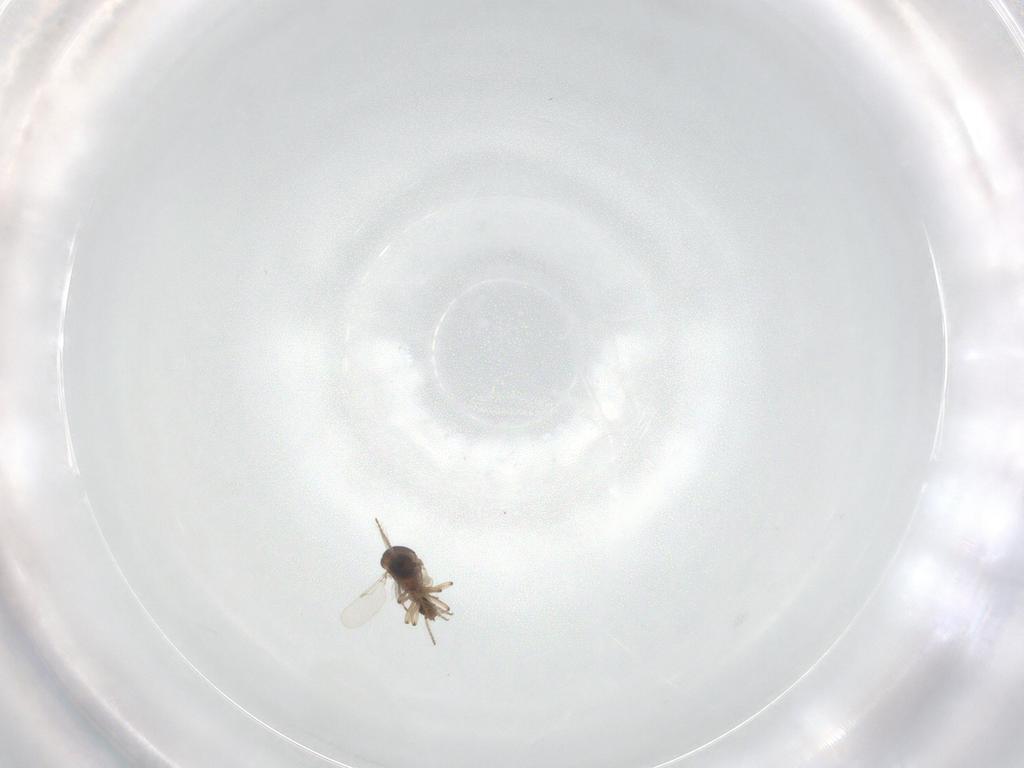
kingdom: Animalia
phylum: Arthropoda
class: Insecta
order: Diptera
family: Ceratopogonidae
